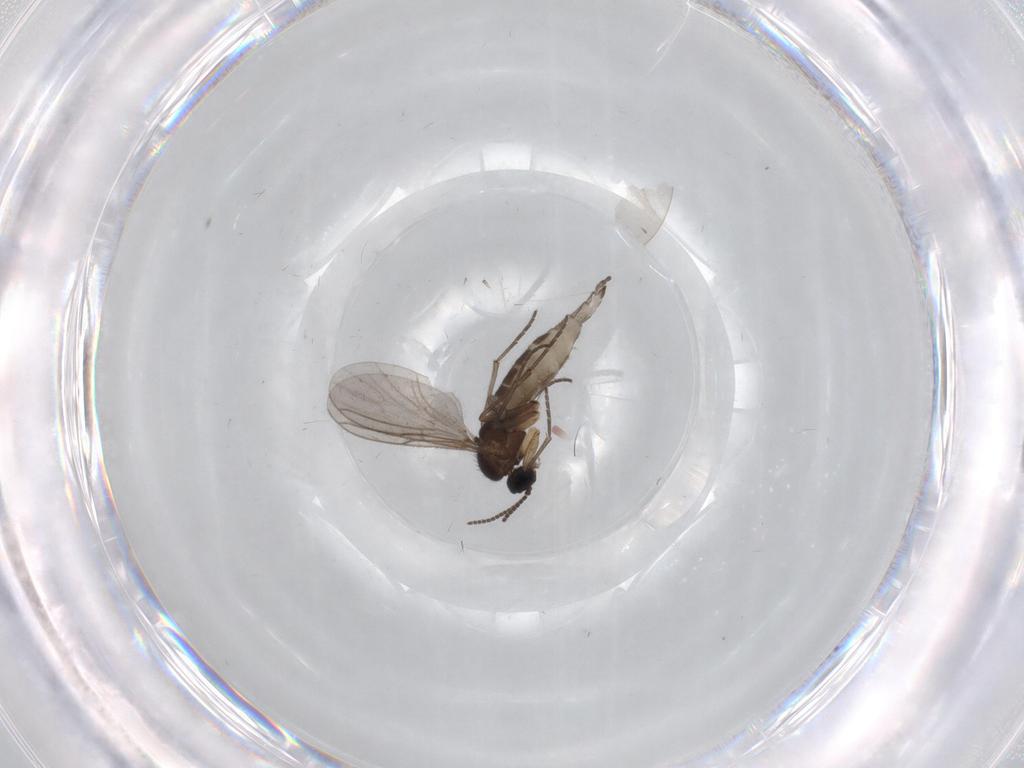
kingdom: Animalia
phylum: Arthropoda
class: Insecta
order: Diptera
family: Sciaridae
